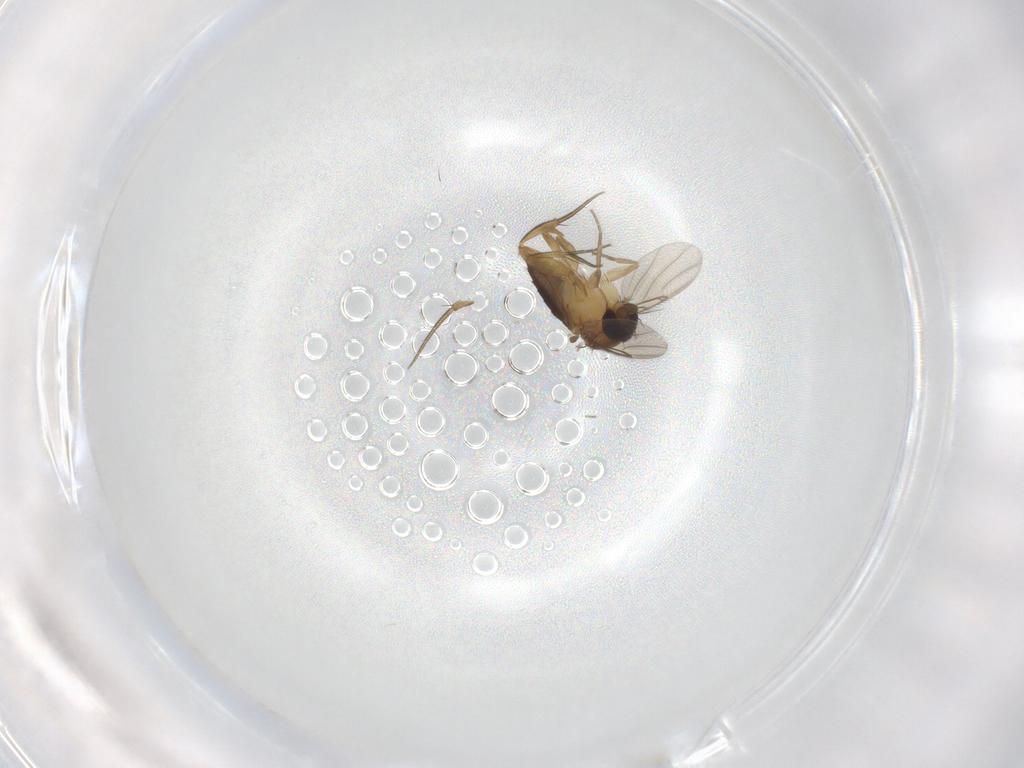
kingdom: Animalia
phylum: Arthropoda
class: Insecta
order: Diptera
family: Phoridae
